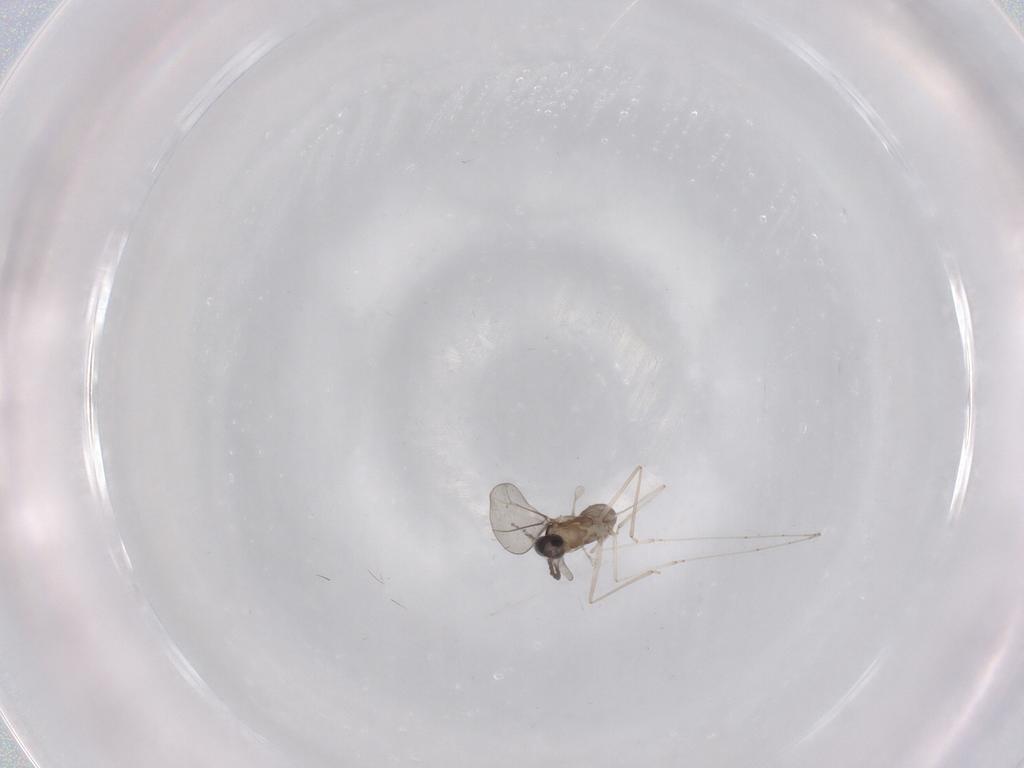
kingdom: Animalia
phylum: Arthropoda
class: Insecta
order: Diptera
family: Cecidomyiidae
